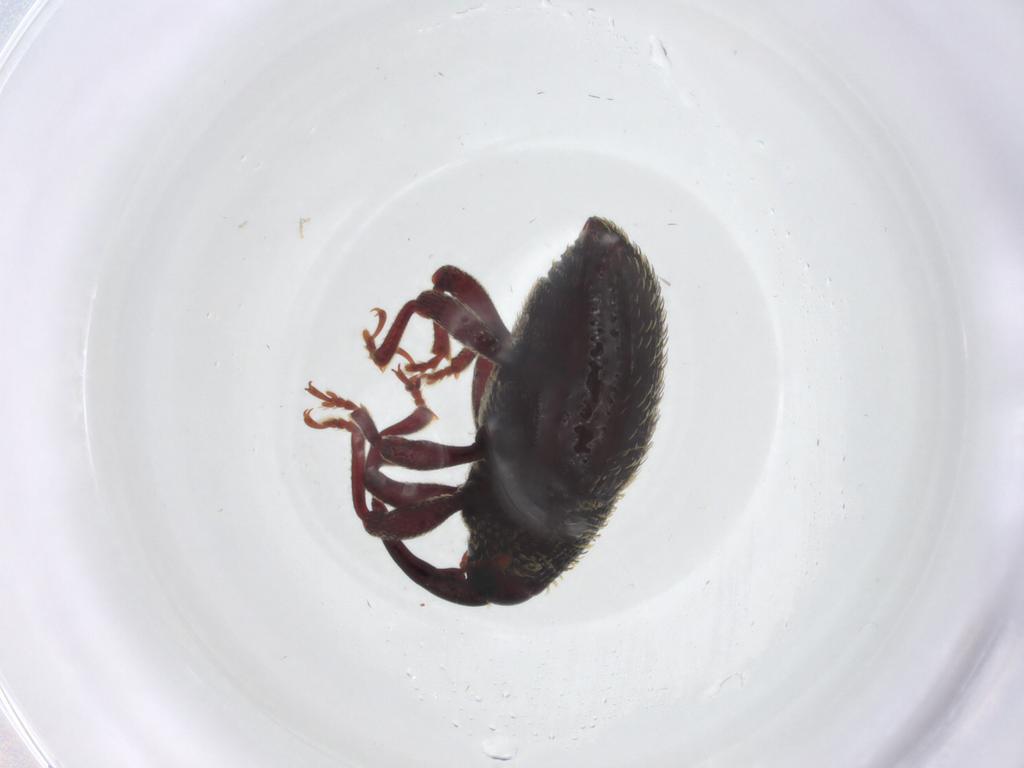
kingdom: Animalia
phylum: Arthropoda
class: Insecta
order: Coleoptera
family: Curculionidae
